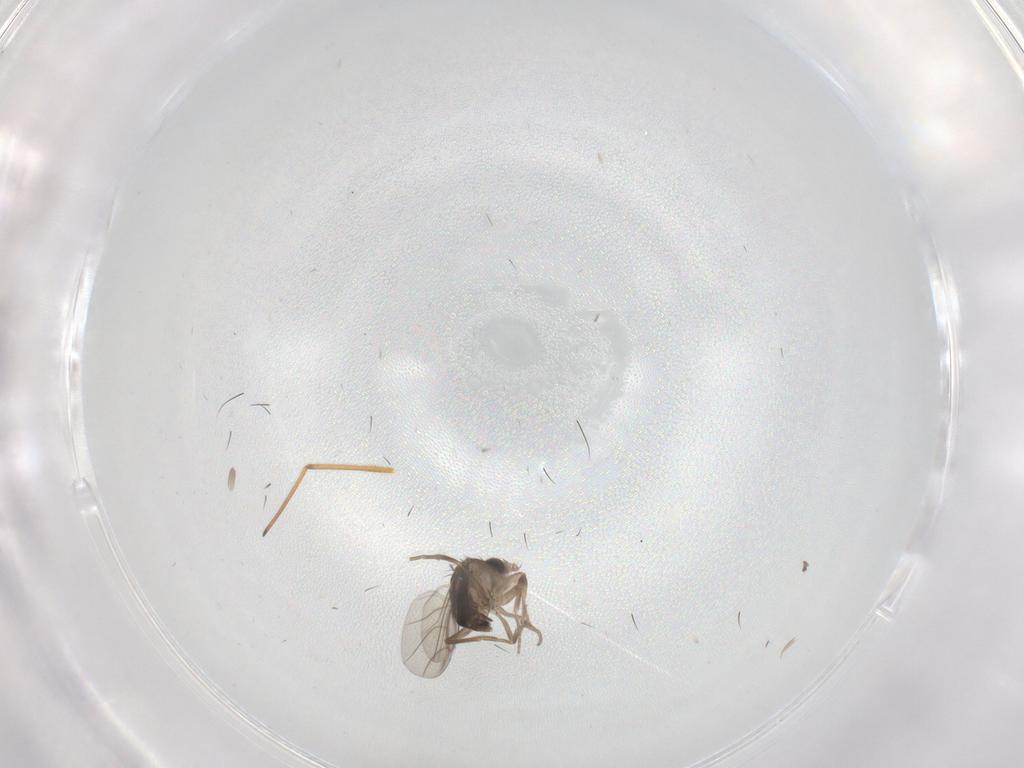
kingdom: Animalia
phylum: Arthropoda
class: Insecta
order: Diptera
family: Phoridae
